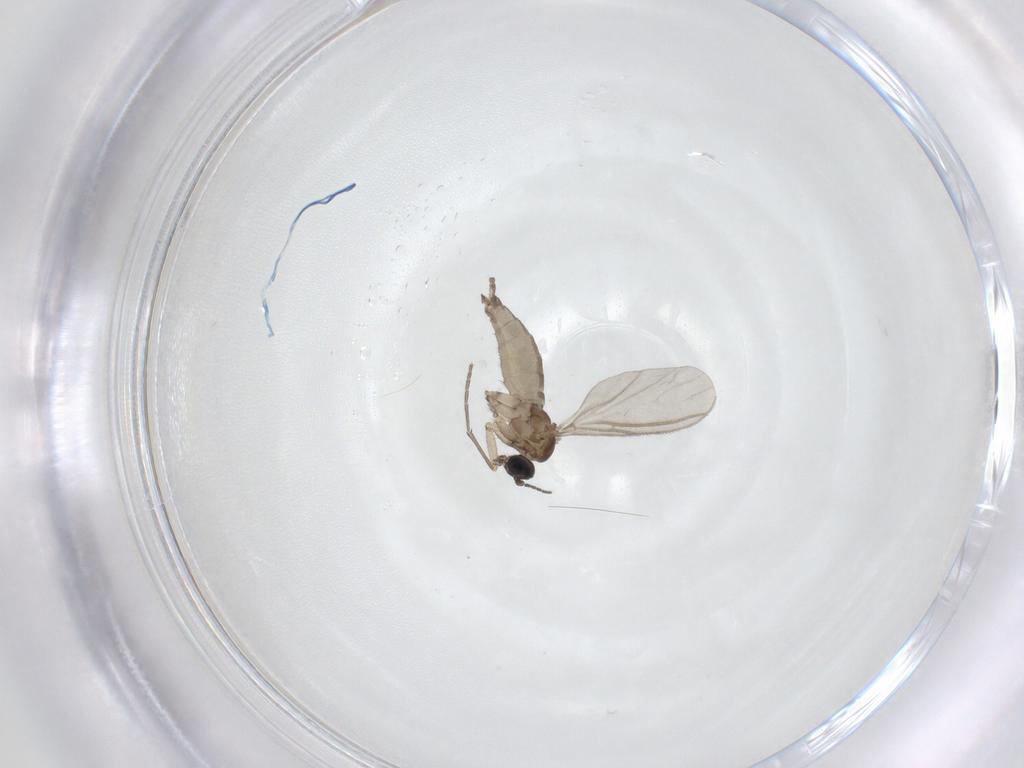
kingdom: Animalia
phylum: Arthropoda
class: Insecta
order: Diptera
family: Sciaridae
